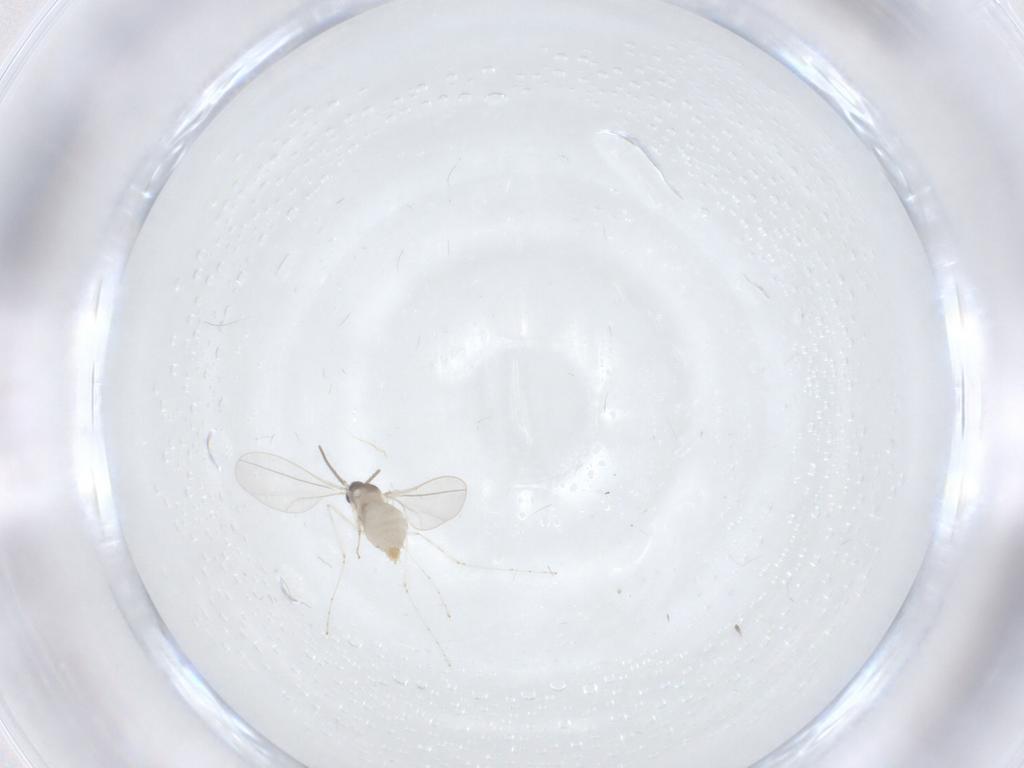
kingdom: Animalia
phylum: Arthropoda
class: Insecta
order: Diptera
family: Cecidomyiidae
